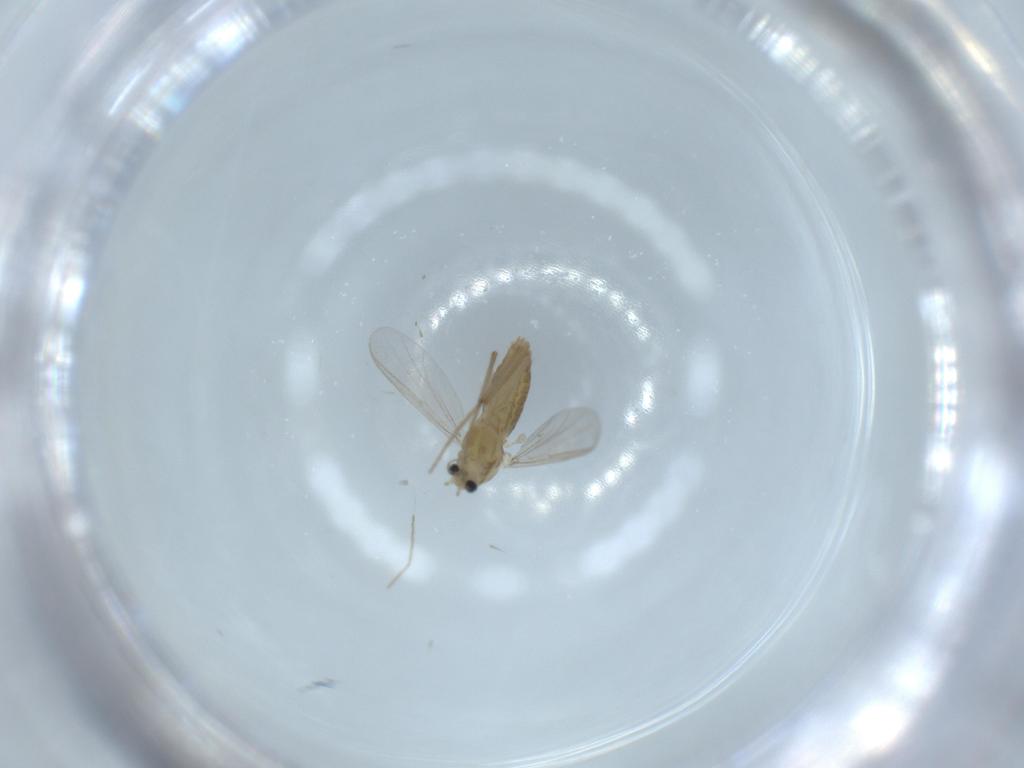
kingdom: Animalia
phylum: Arthropoda
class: Insecta
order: Diptera
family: Chironomidae
